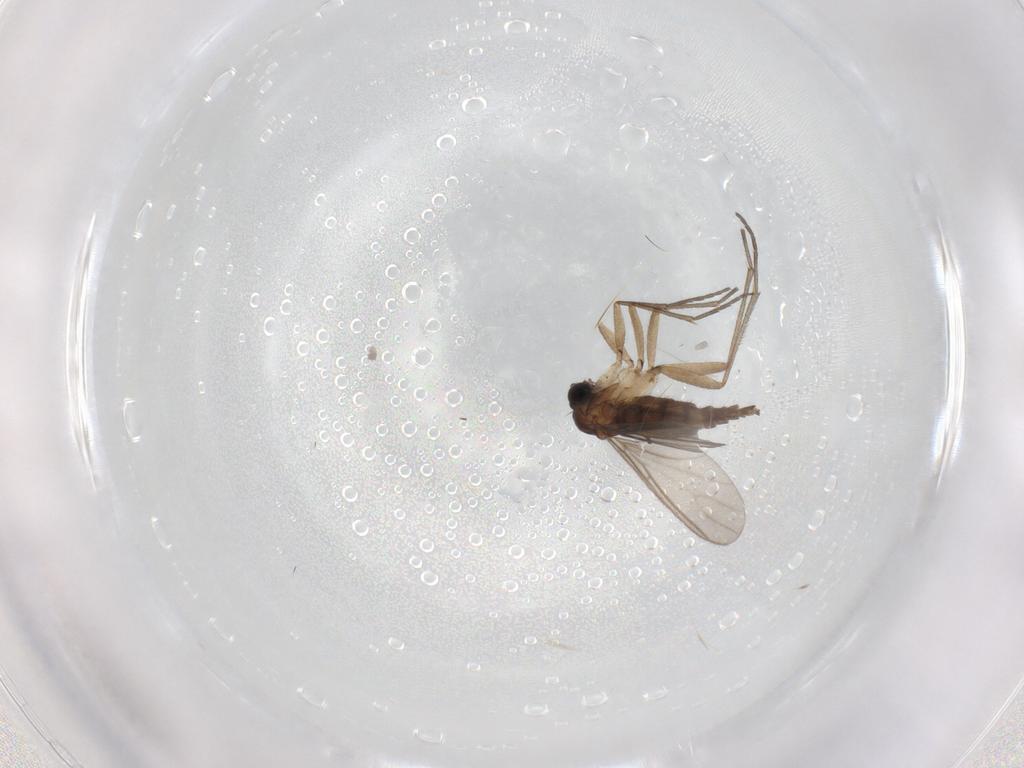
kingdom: Animalia
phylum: Arthropoda
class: Insecta
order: Diptera
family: Sciaridae
